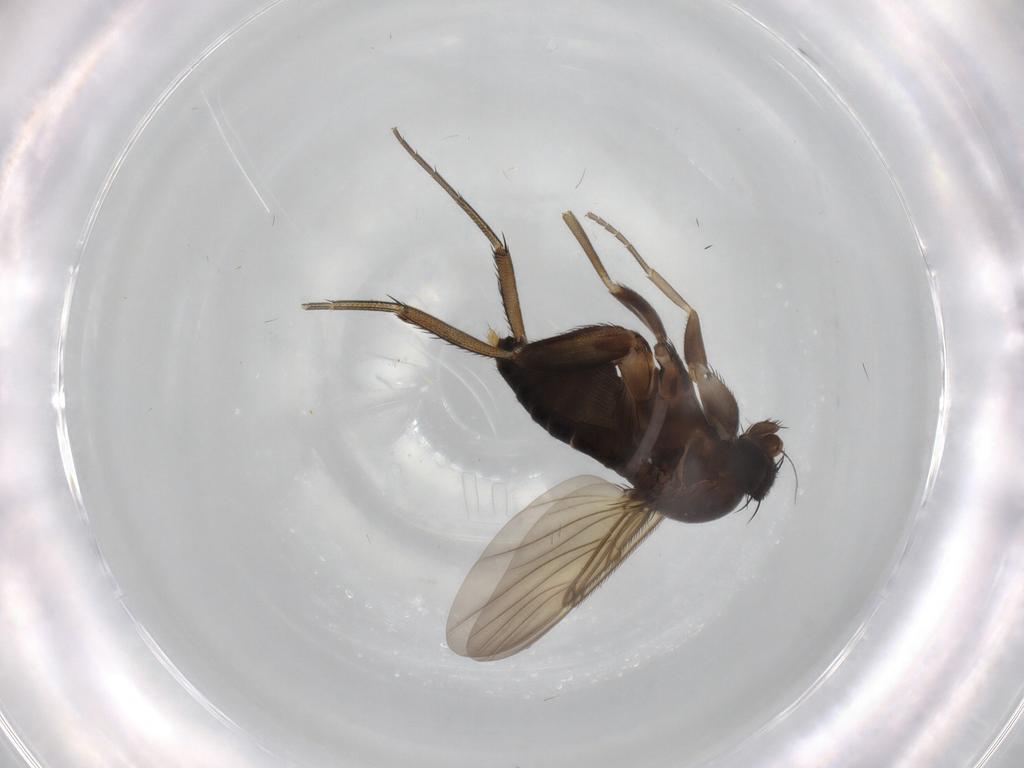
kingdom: Animalia
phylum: Arthropoda
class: Insecta
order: Diptera
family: Phoridae
